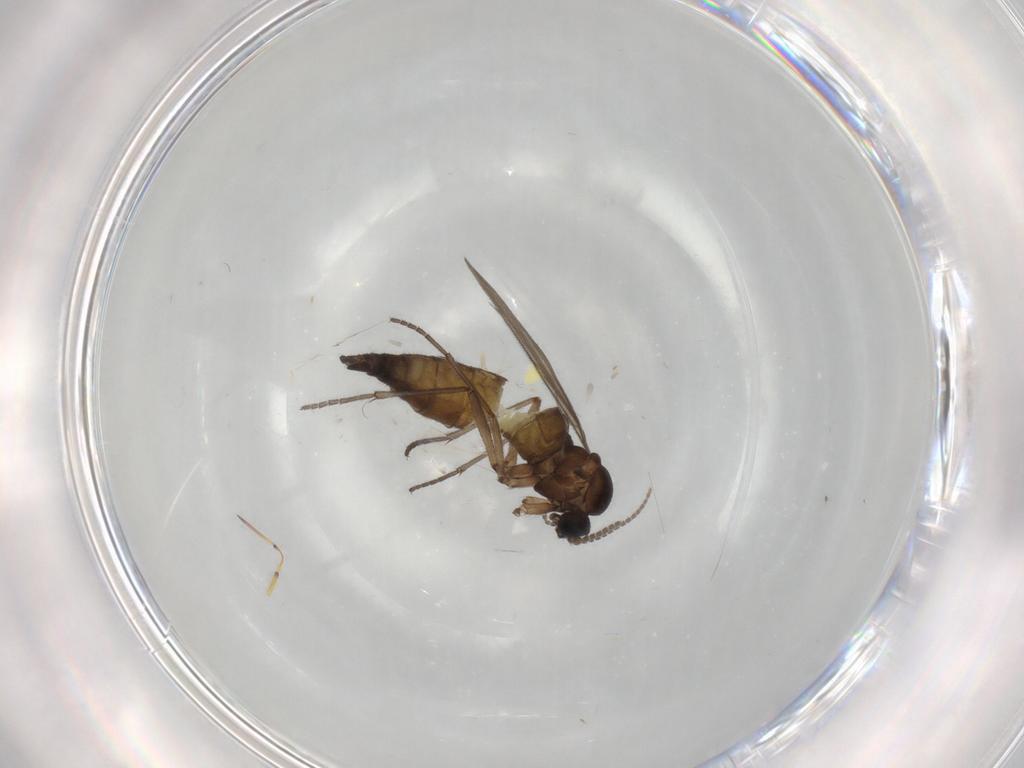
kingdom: Animalia
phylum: Arthropoda
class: Insecta
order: Diptera
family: Sciaridae
